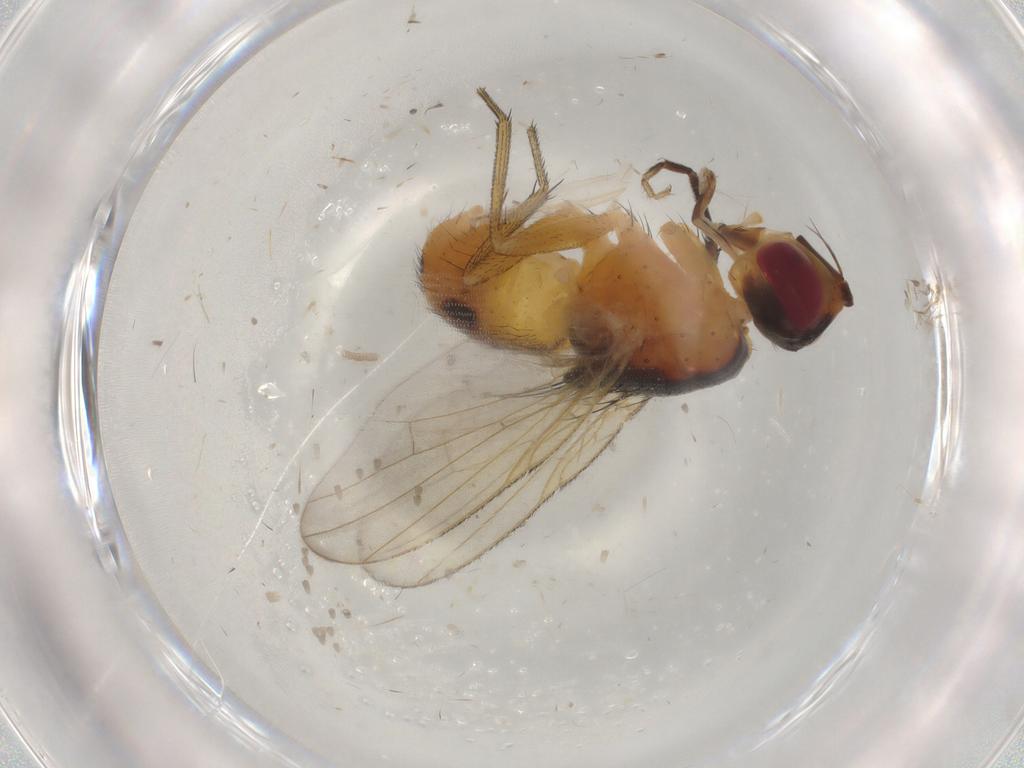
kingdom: Animalia
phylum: Arthropoda
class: Insecta
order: Diptera
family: Muscidae
